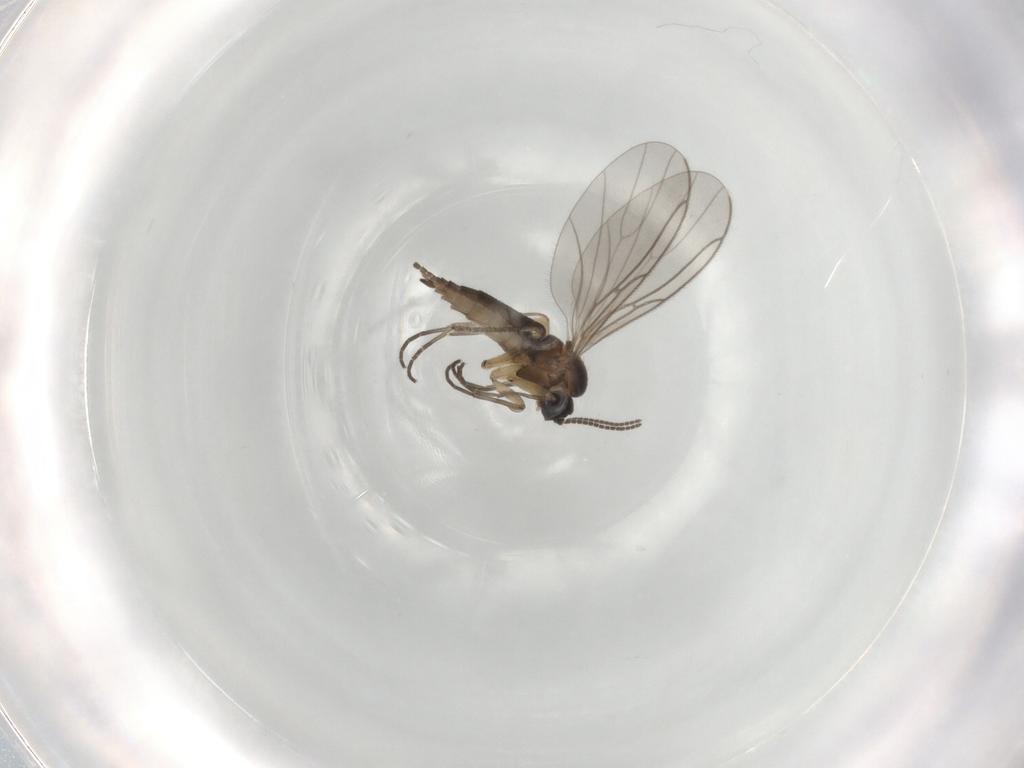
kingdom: Animalia
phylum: Arthropoda
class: Insecta
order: Diptera
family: Sciaridae
